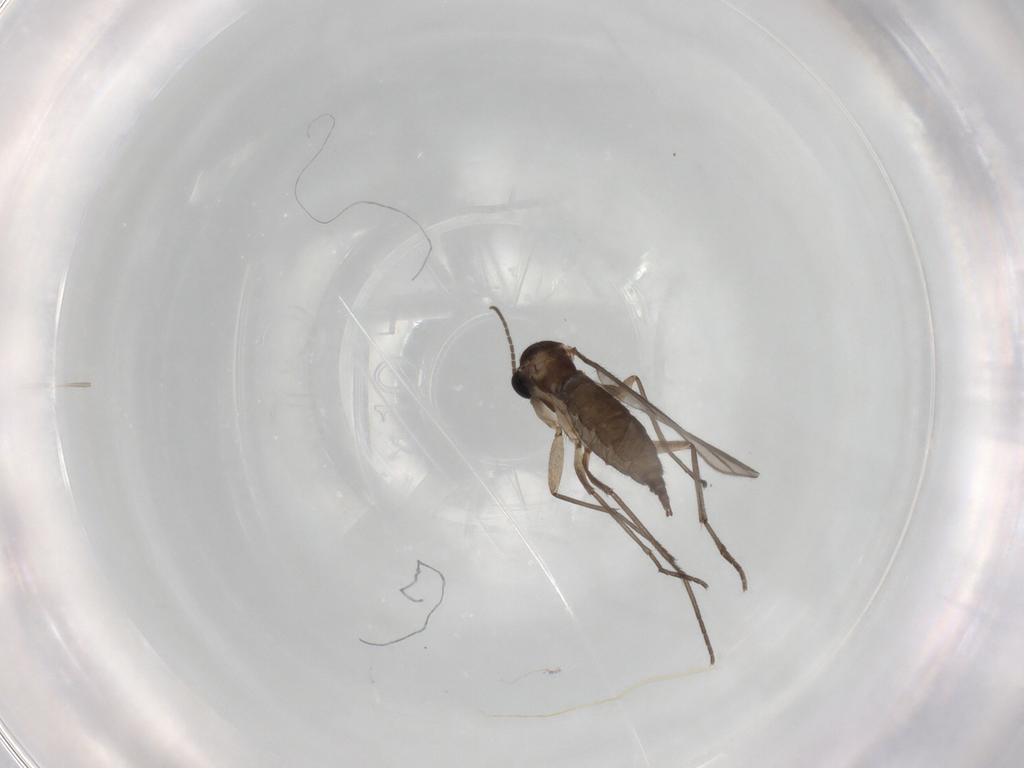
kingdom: Animalia
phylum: Arthropoda
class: Insecta
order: Diptera
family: Sciaridae
